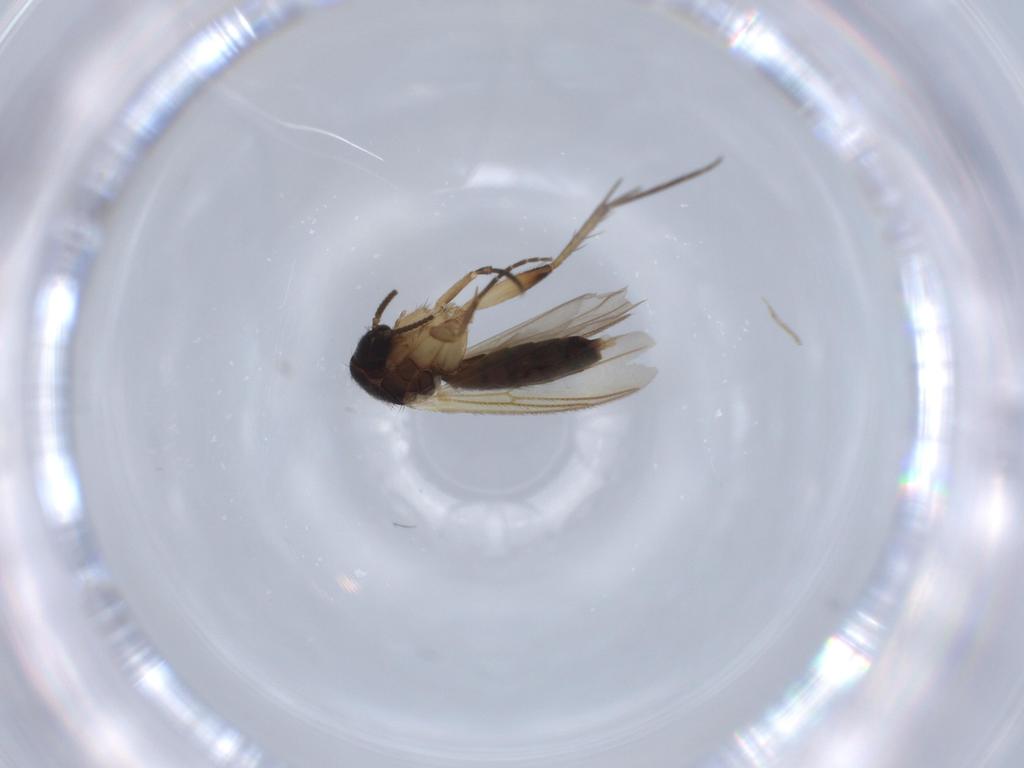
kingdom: Animalia
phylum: Arthropoda
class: Insecta
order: Diptera
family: Mycetophilidae
